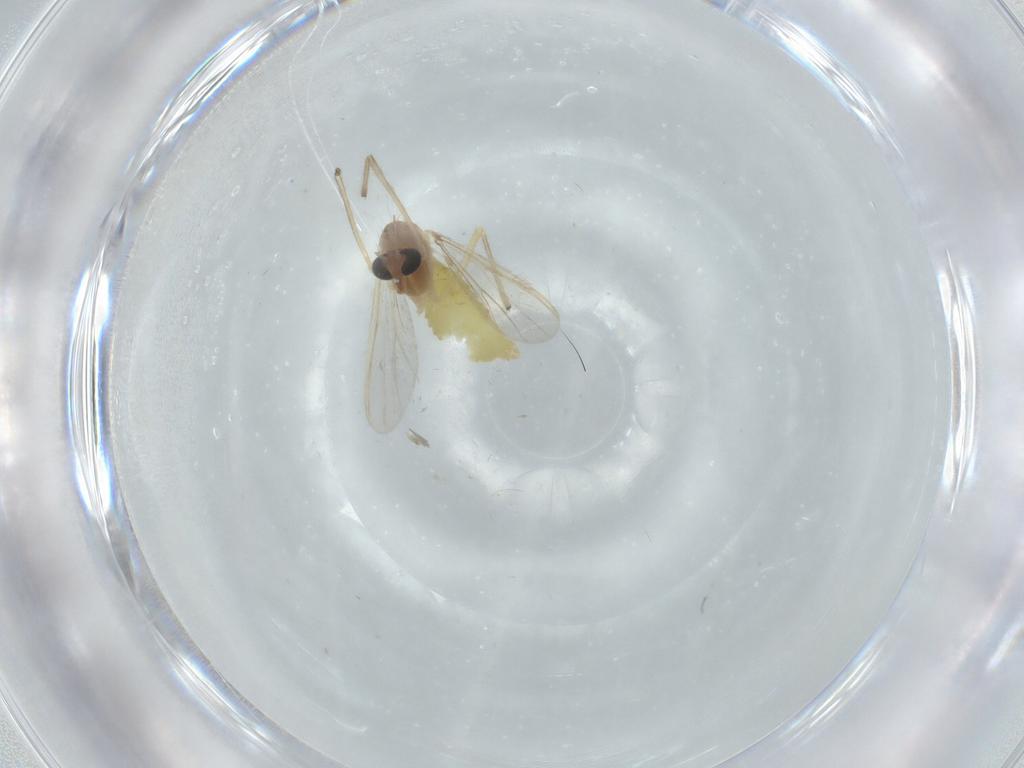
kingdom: Animalia
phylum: Arthropoda
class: Insecta
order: Diptera
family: Chironomidae
